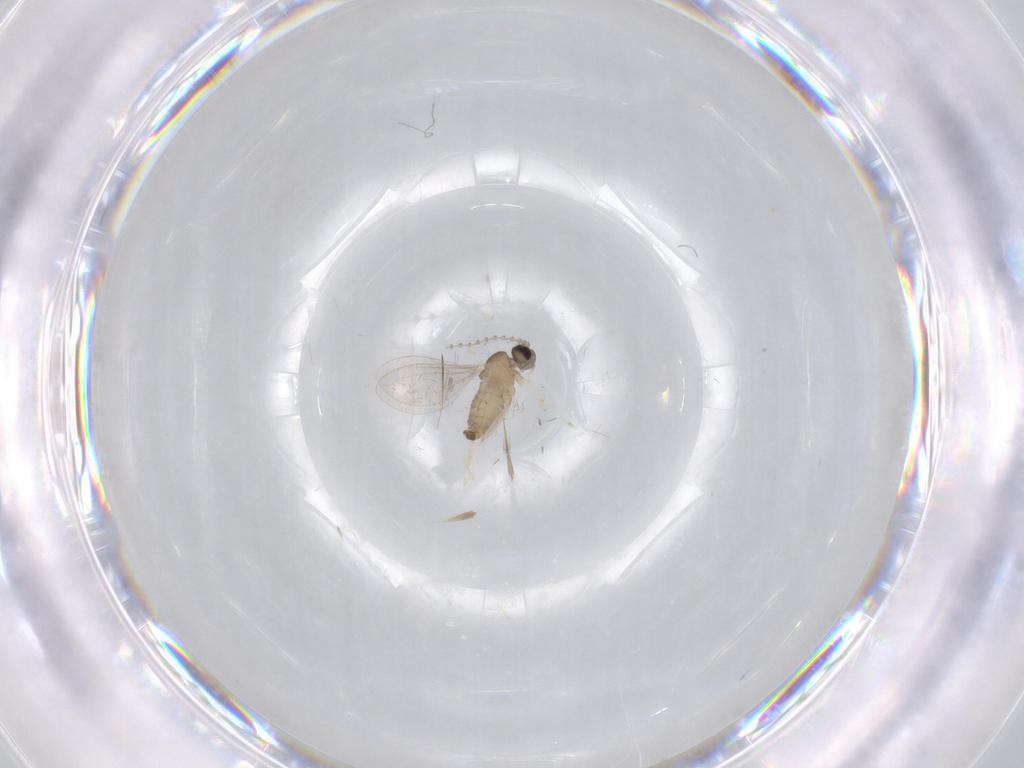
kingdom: Animalia
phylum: Arthropoda
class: Insecta
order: Diptera
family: Cecidomyiidae
